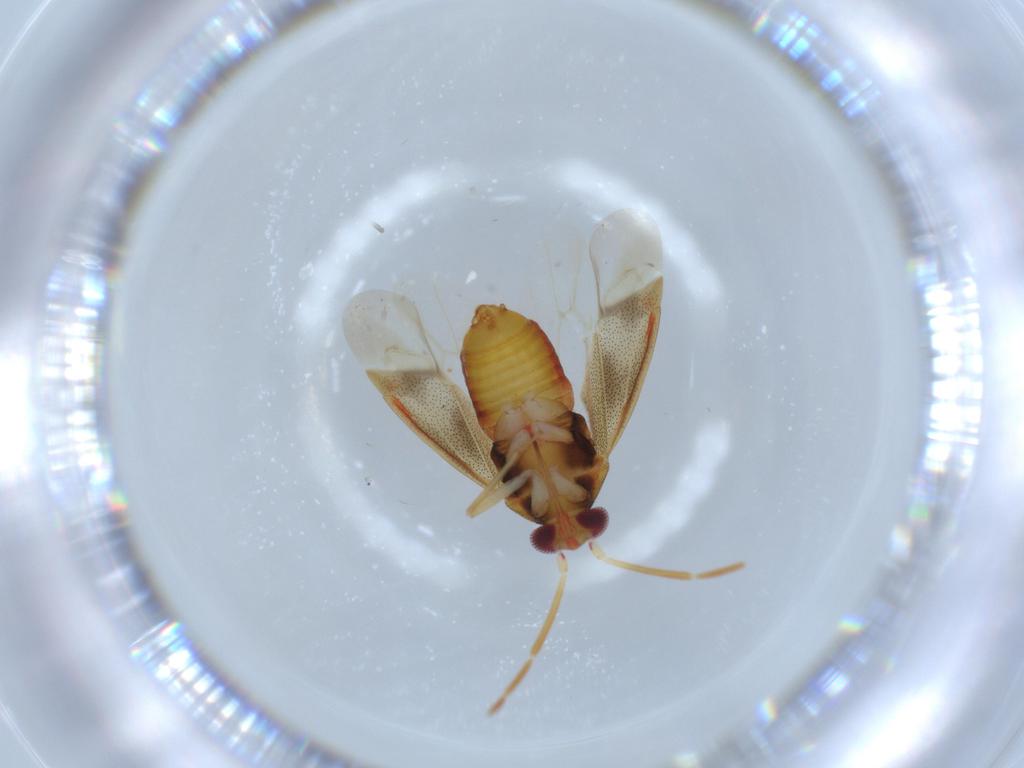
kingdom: Animalia
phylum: Arthropoda
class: Insecta
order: Hemiptera
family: Miridae
